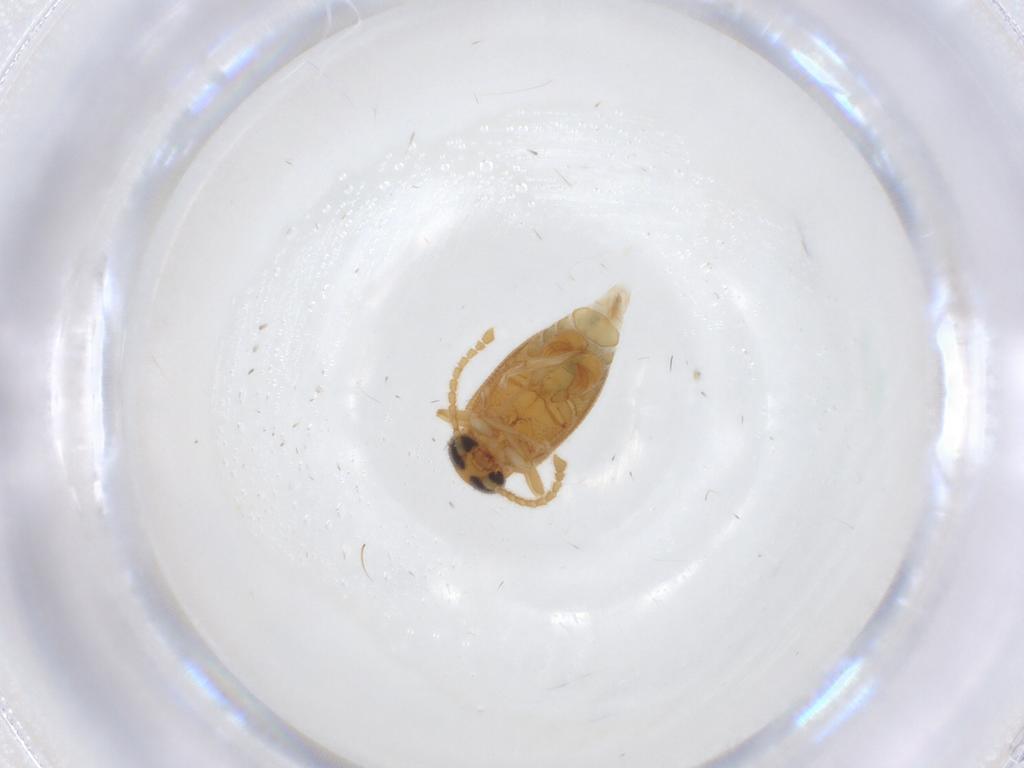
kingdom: Animalia
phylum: Arthropoda
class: Insecta
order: Coleoptera
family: Aderidae
